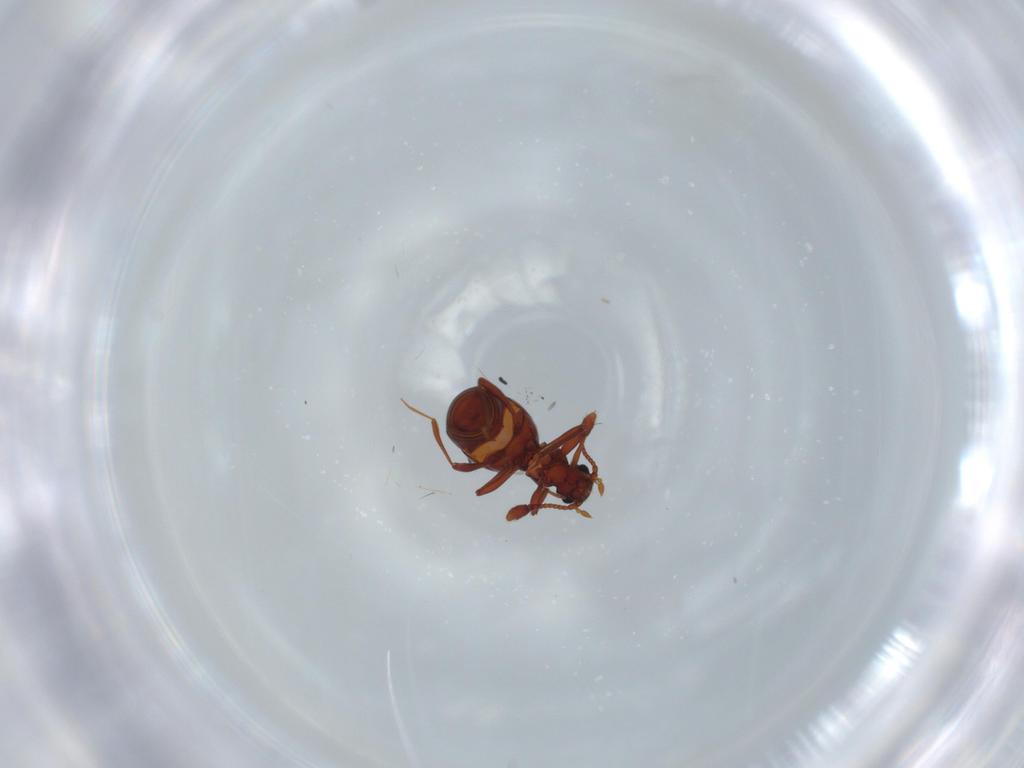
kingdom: Animalia
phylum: Arthropoda
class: Insecta
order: Coleoptera
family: Staphylinidae
